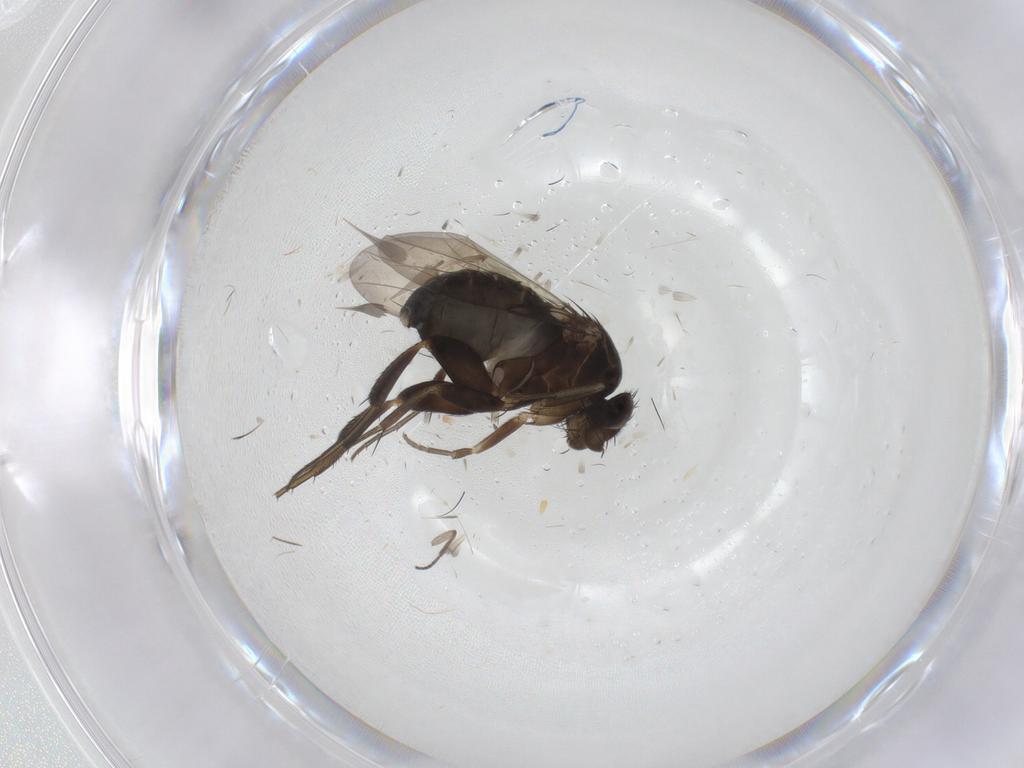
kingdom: Animalia
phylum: Arthropoda
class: Insecta
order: Diptera
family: Phoridae
